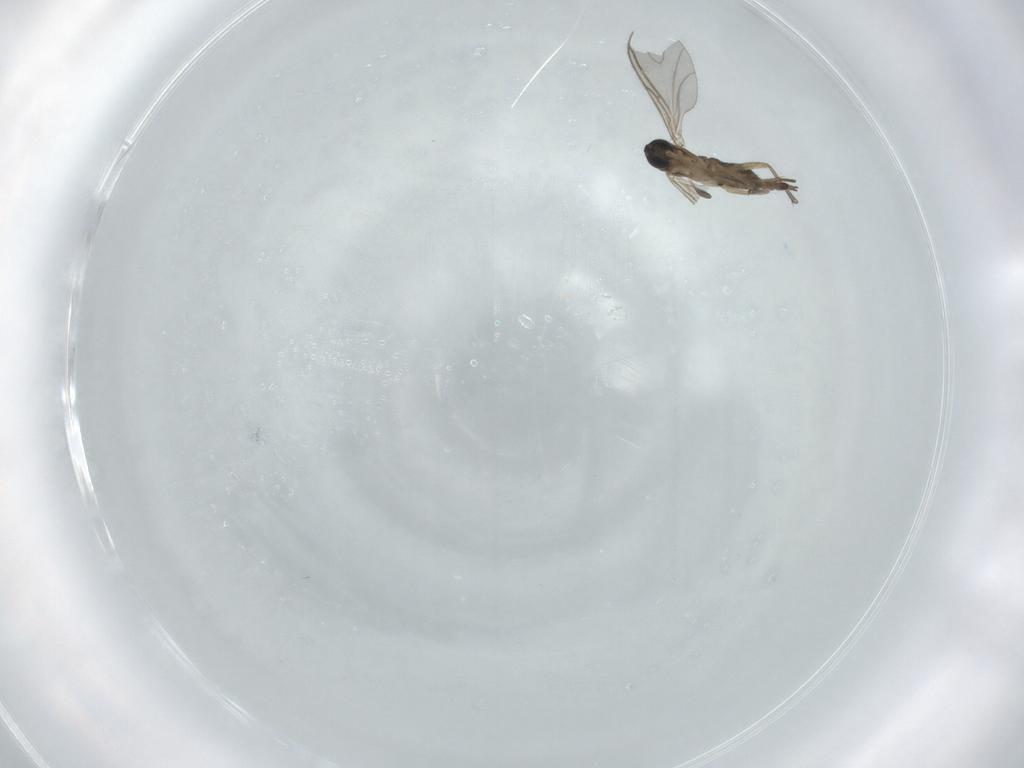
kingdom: Animalia
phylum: Arthropoda
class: Insecta
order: Diptera
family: Sciaridae
